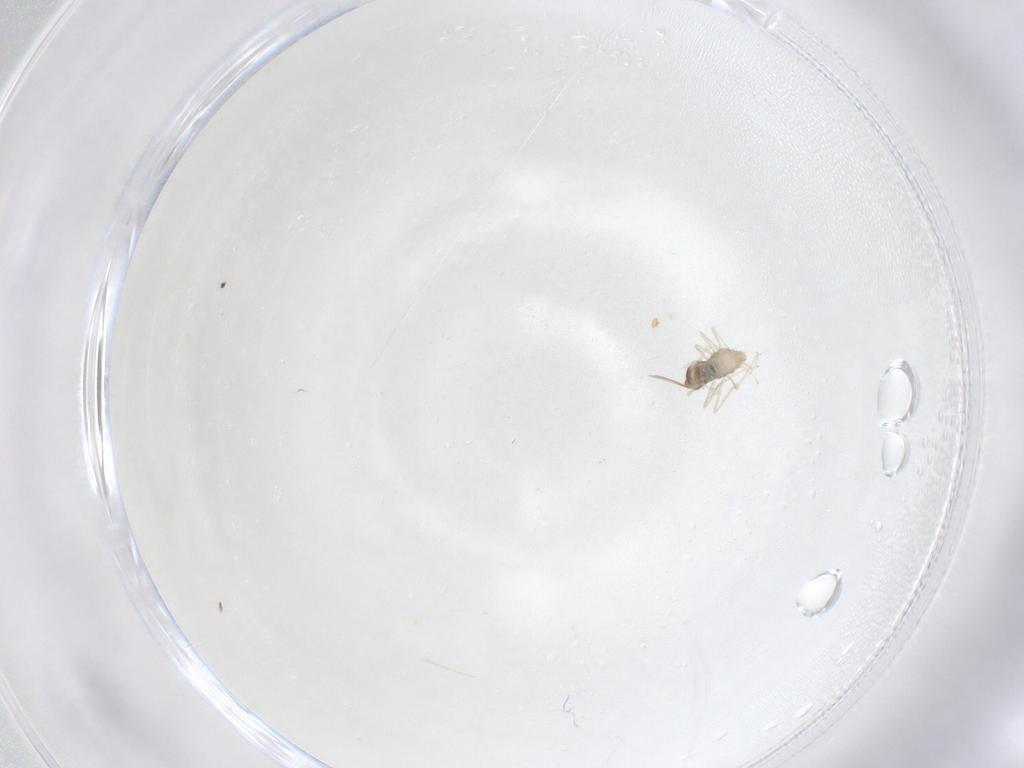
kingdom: Animalia
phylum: Arthropoda
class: Insecta
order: Diptera
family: Cecidomyiidae
